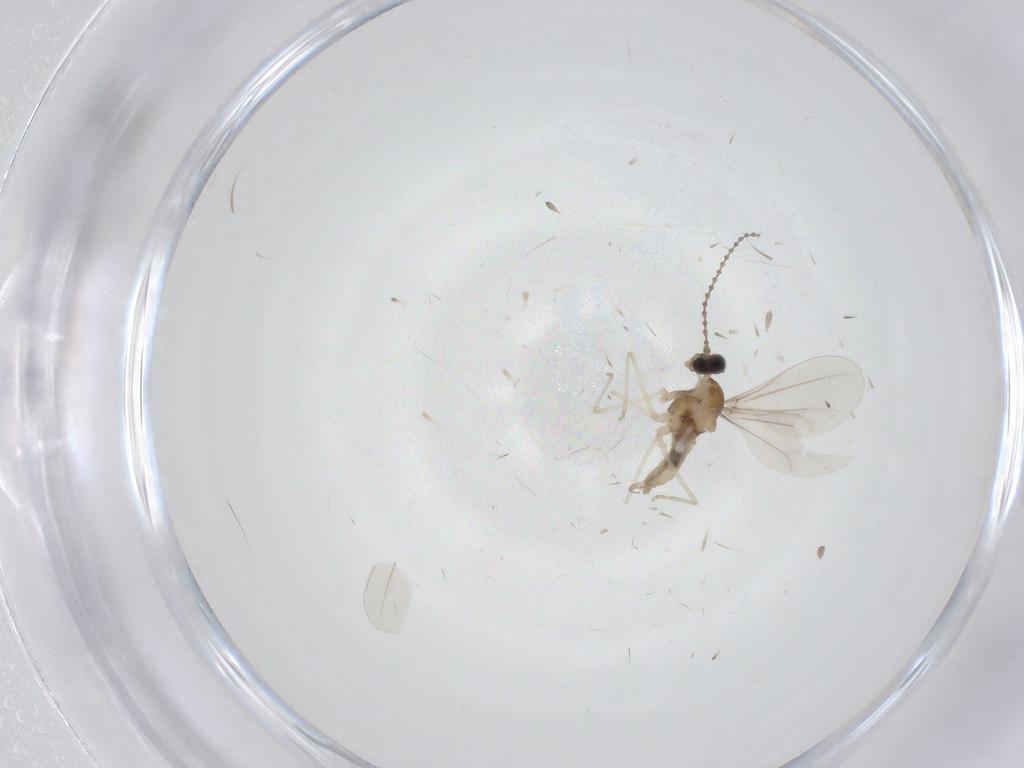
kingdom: Animalia
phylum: Arthropoda
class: Insecta
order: Diptera
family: Cecidomyiidae
